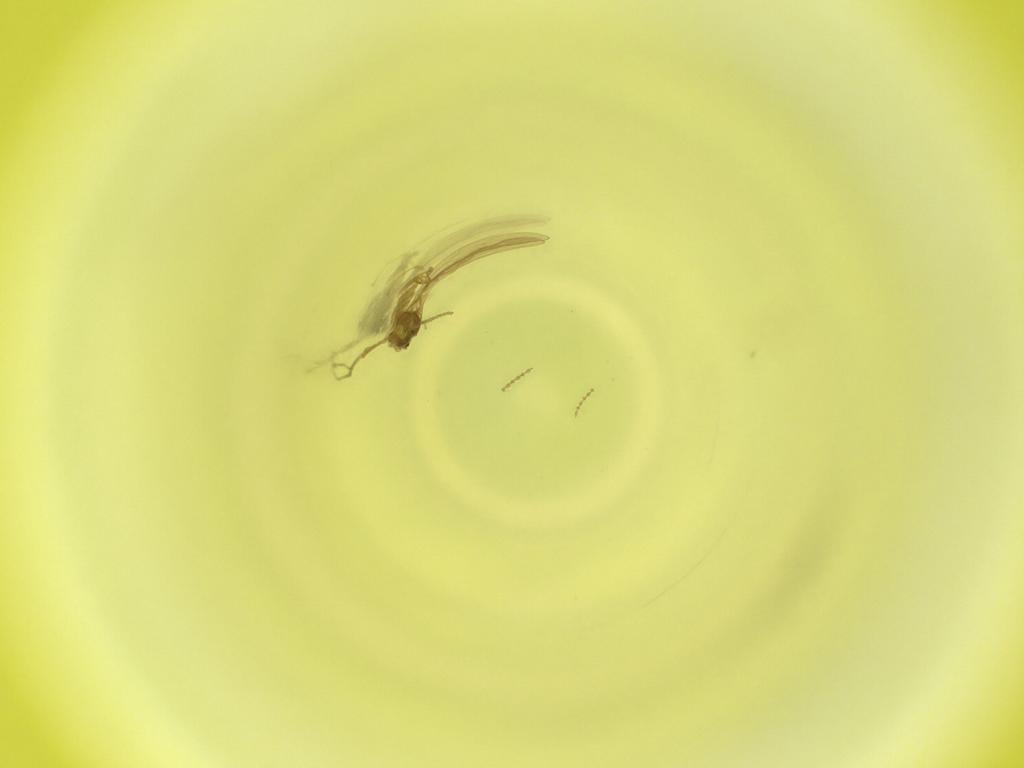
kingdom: Animalia
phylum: Arthropoda
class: Insecta
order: Diptera
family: Cecidomyiidae
